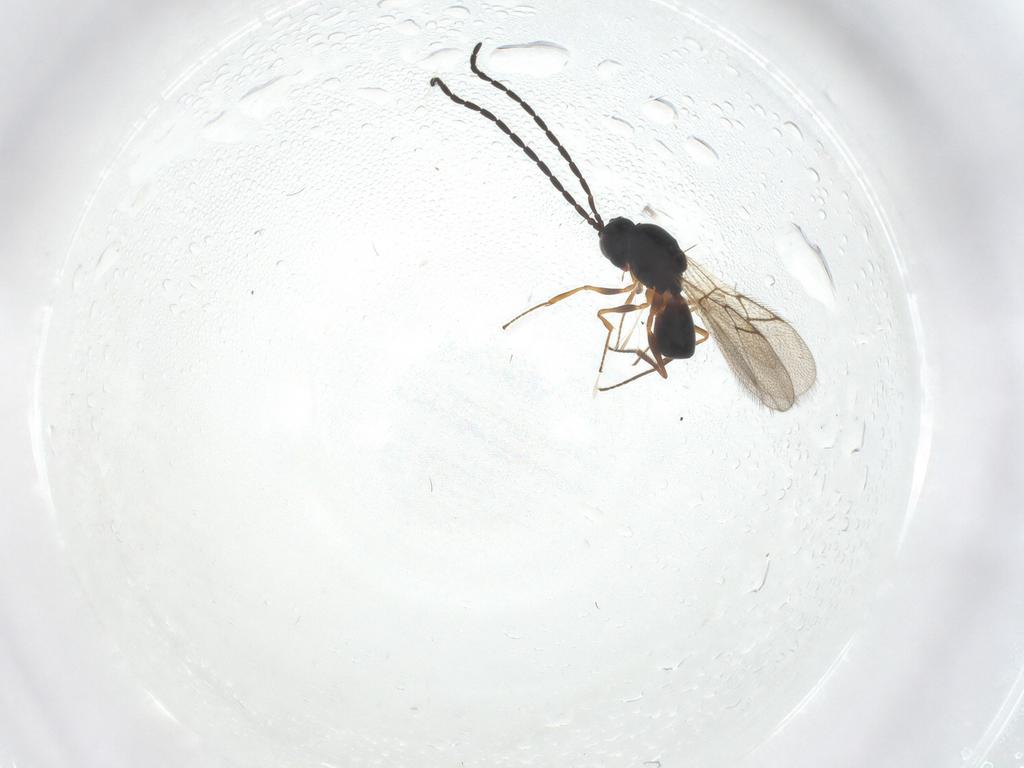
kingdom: Animalia
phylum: Arthropoda
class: Insecta
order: Hymenoptera
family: Figitidae
